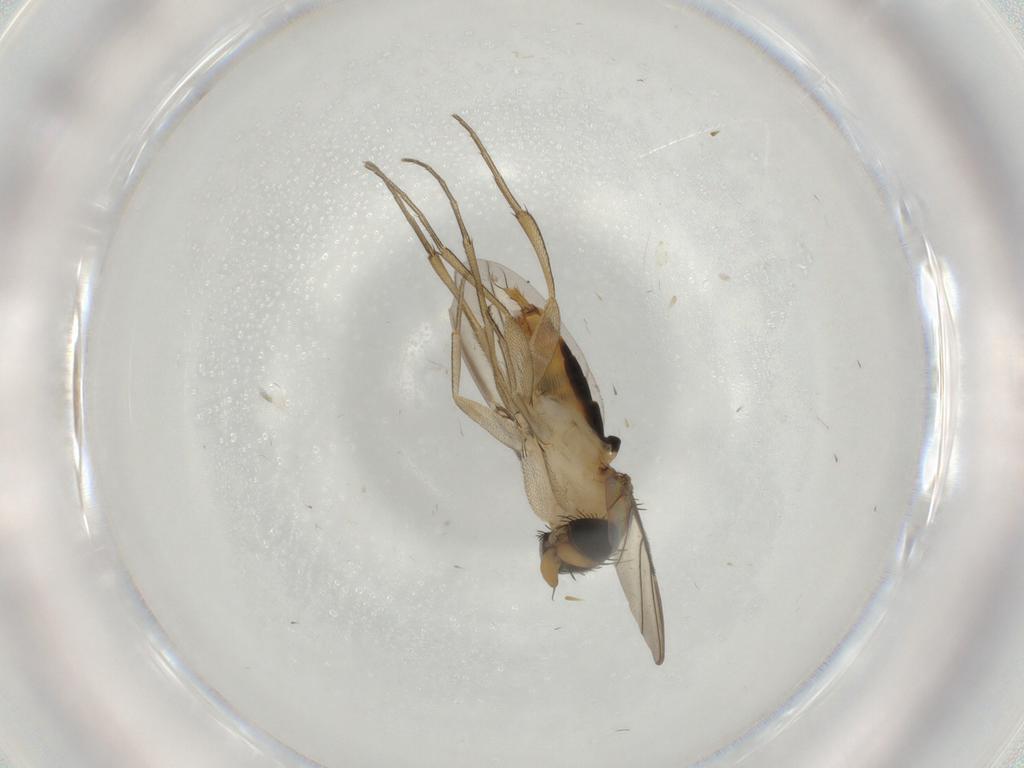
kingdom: Animalia
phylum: Arthropoda
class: Insecta
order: Diptera
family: Phoridae
